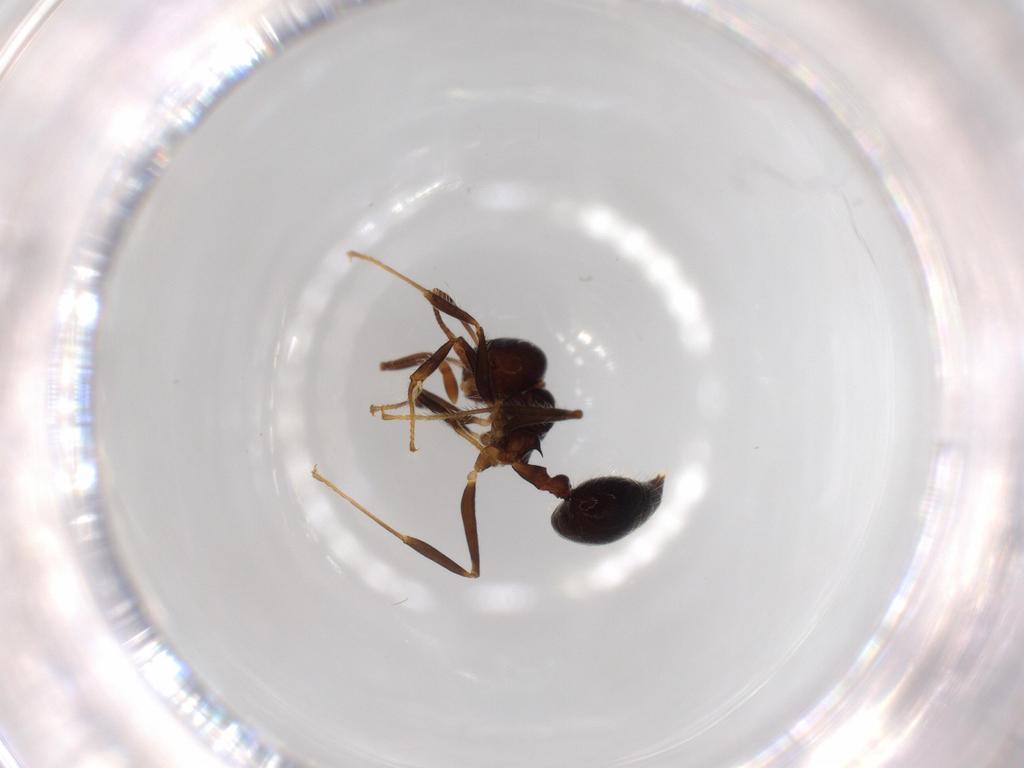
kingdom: Animalia
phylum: Arthropoda
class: Insecta
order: Hymenoptera
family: Formicidae
